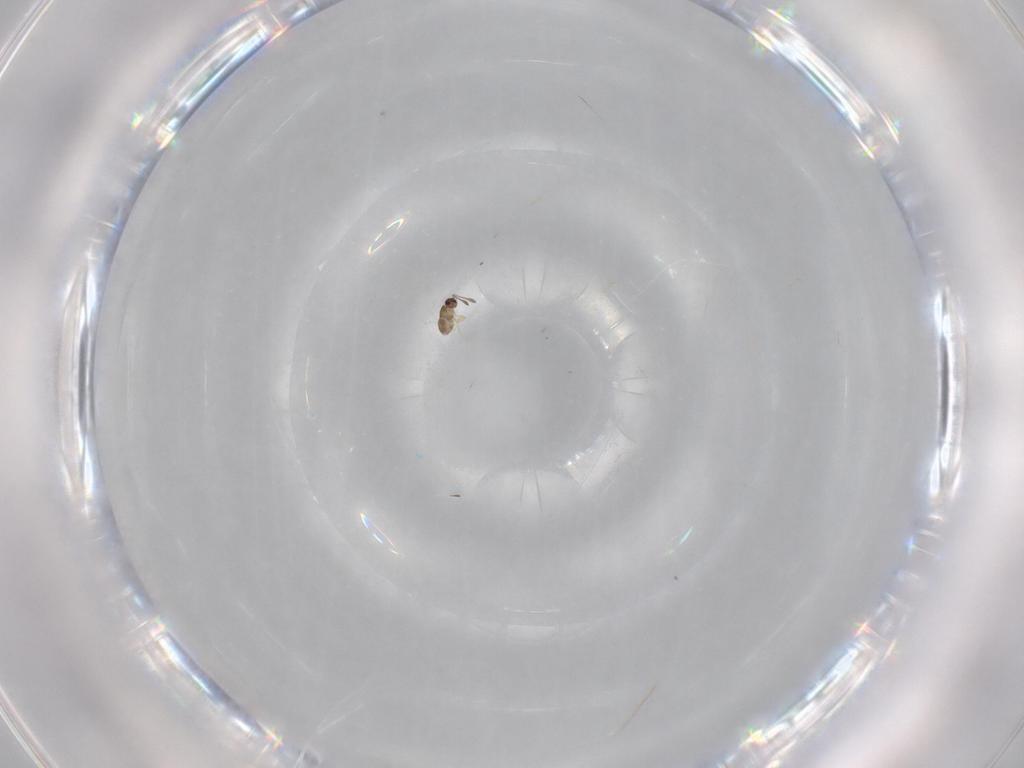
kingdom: Animalia
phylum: Arthropoda
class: Insecta
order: Hymenoptera
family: Mymaridae
